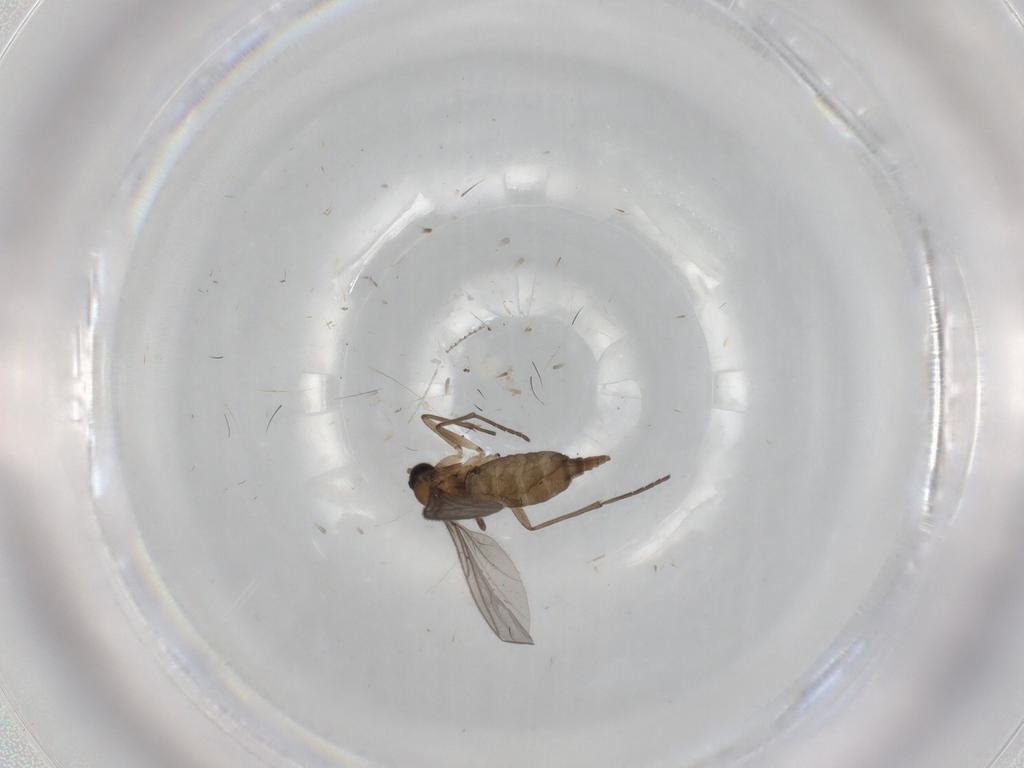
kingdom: Animalia
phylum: Arthropoda
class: Insecta
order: Diptera
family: Sciaridae
